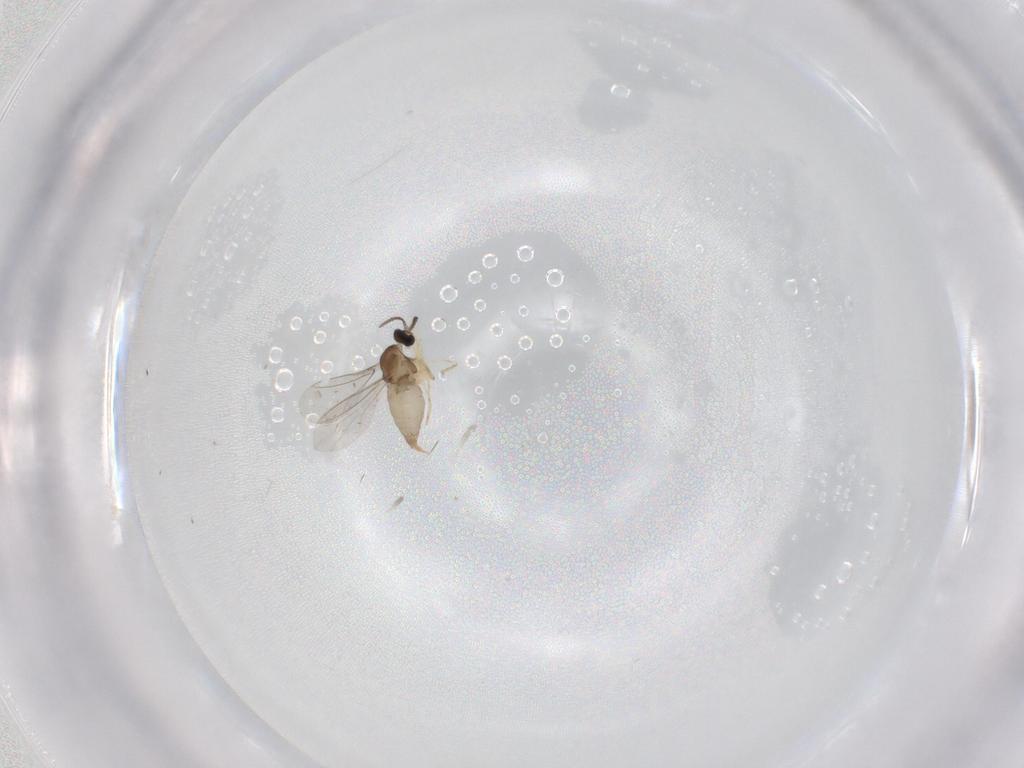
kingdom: Animalia
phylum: Arthropoda
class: Insecta
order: Diptera
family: Cecidomyiidae
